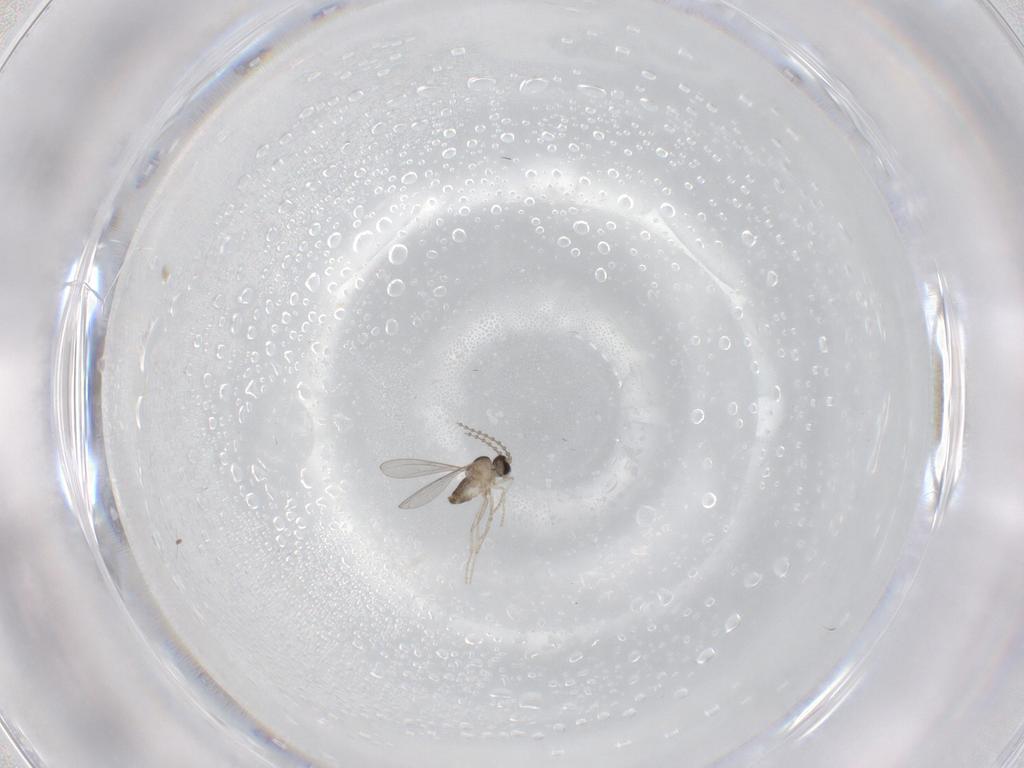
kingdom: Animalia
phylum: Arthropoda
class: Insecta
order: Diptera
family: Cecidomyiidae
